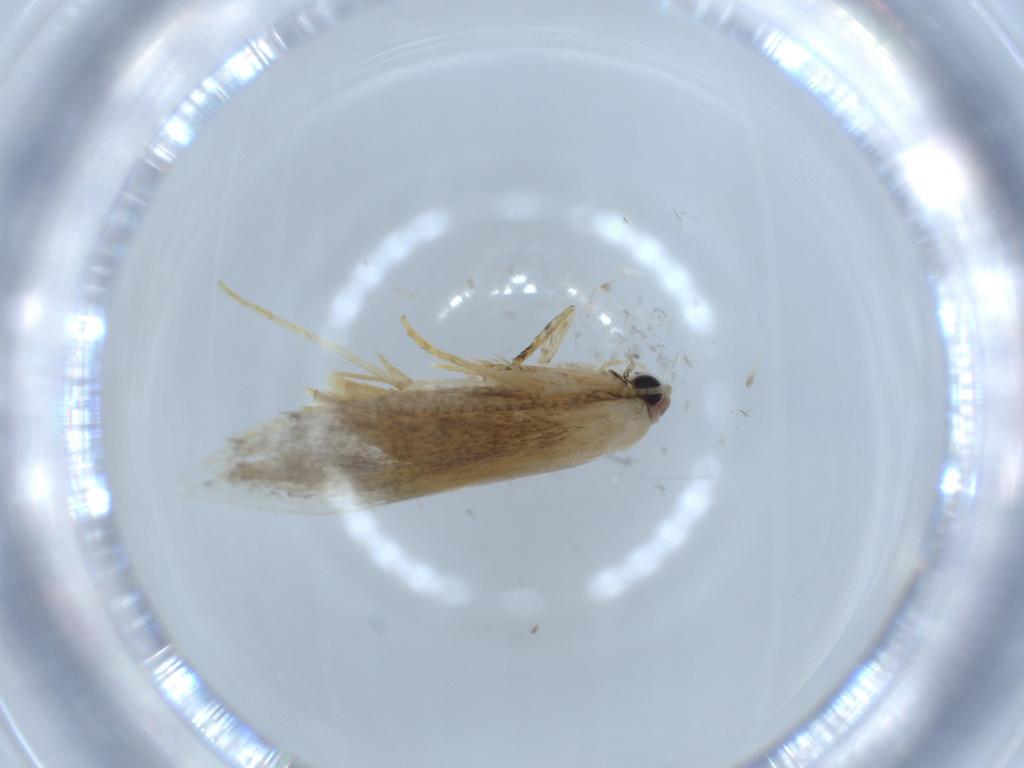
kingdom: Animalia
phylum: Arthropoda
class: Insecta
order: Lepidoptera
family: Tineidae
